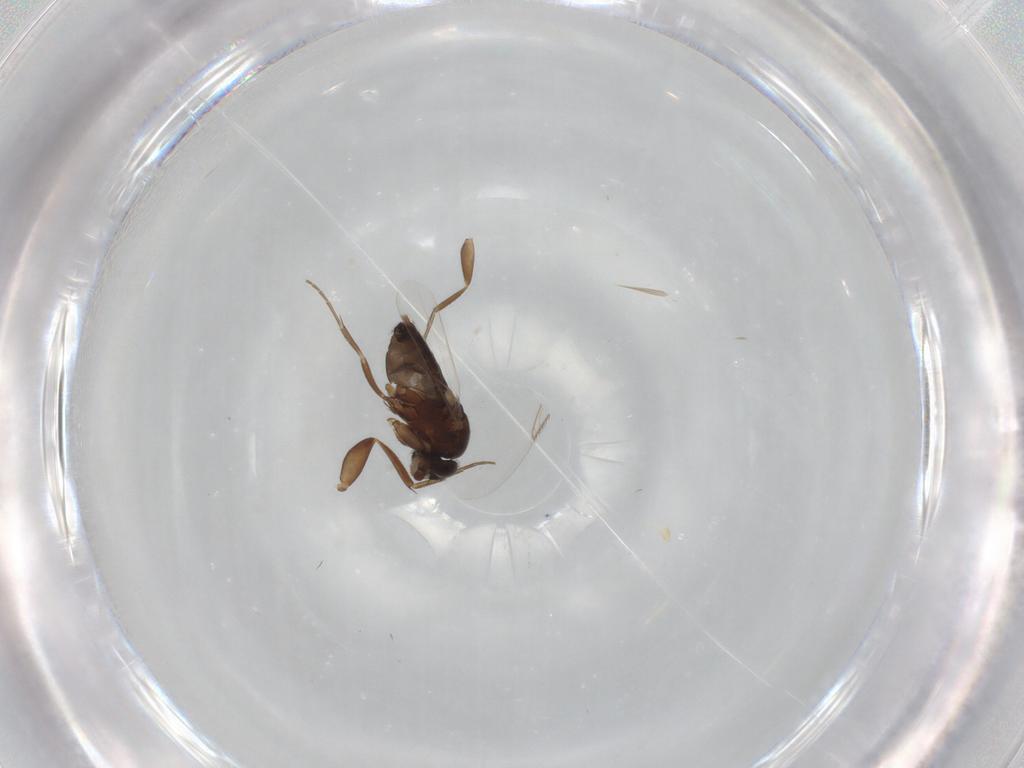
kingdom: Animalia
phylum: Arthropoda
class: Insecta
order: Diptera
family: Phoridae
